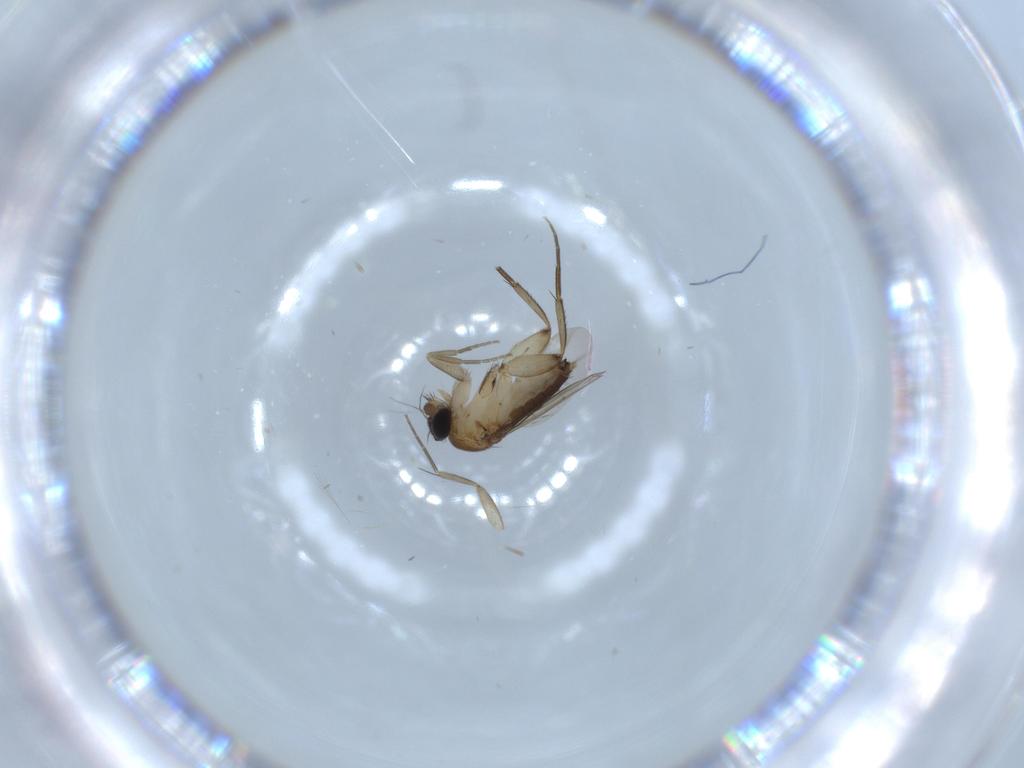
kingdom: Animalia
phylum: Arthropoda
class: Insecta
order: Diptera
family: Phoridae
